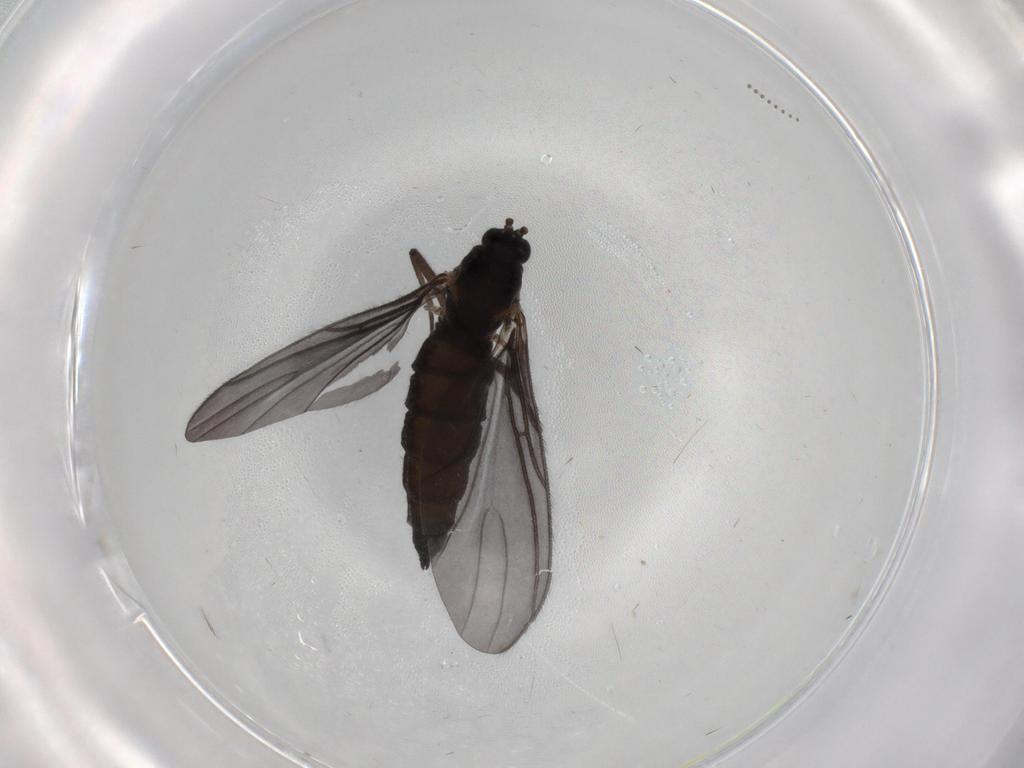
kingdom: Animalia
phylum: Arthropoda
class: Insecta
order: Diptera
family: Sciaridae
